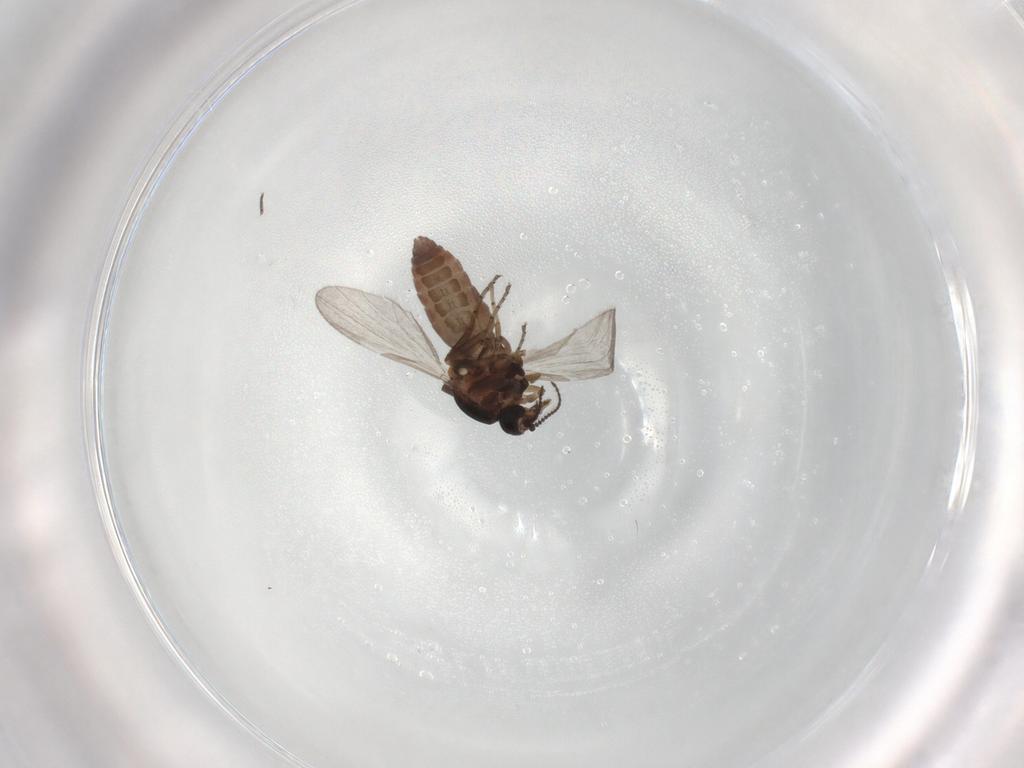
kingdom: Animalia
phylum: Arthropoda
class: Insecta
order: Diptera
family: Ceratopogonidae
